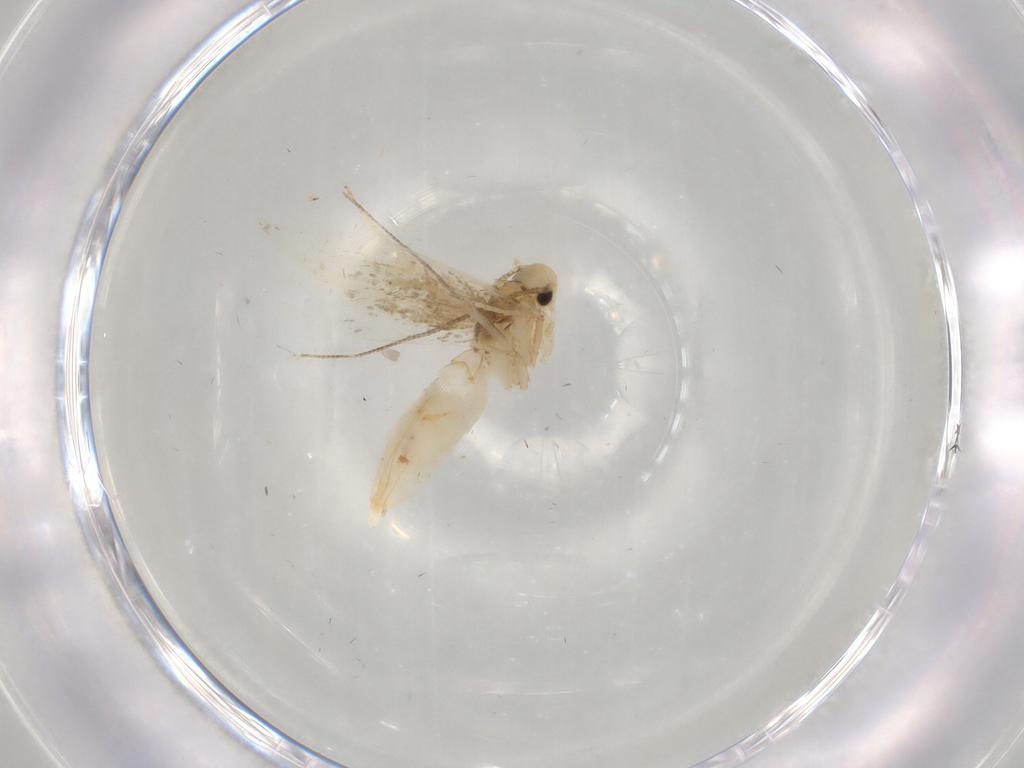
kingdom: Animalia
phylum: Arthropoda
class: Insecta
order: Lepidoptera
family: Tineidae
